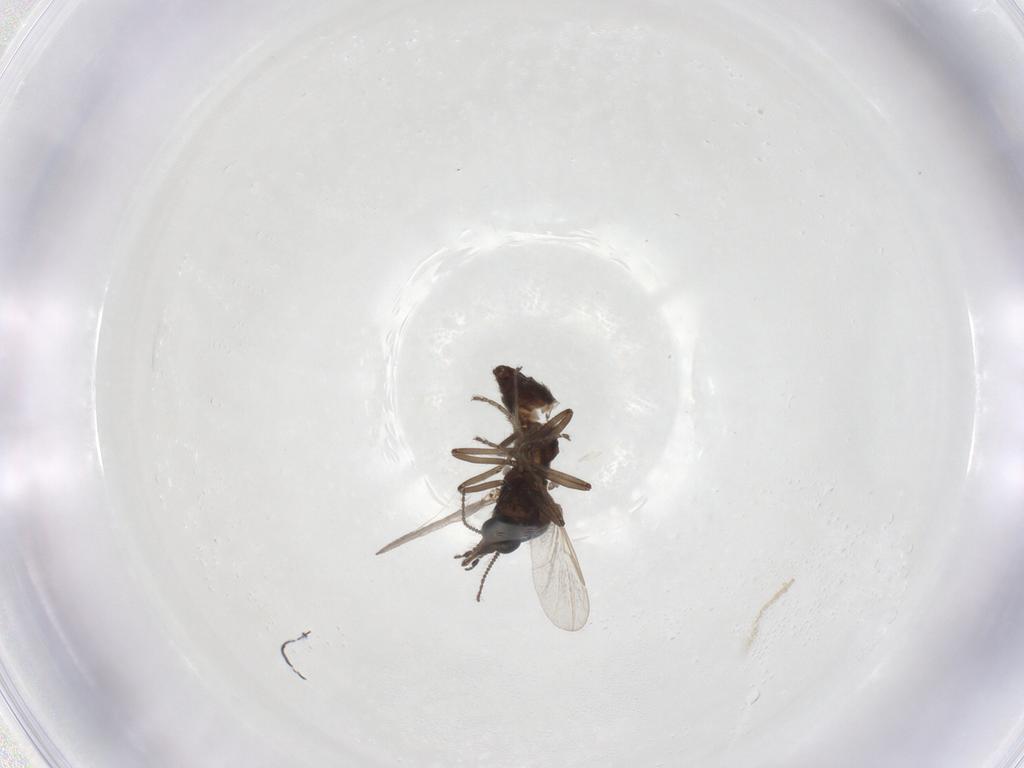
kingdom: Animalia
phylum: Arthropoda
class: Insecta
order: Diptera
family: Ceratopogonidae
